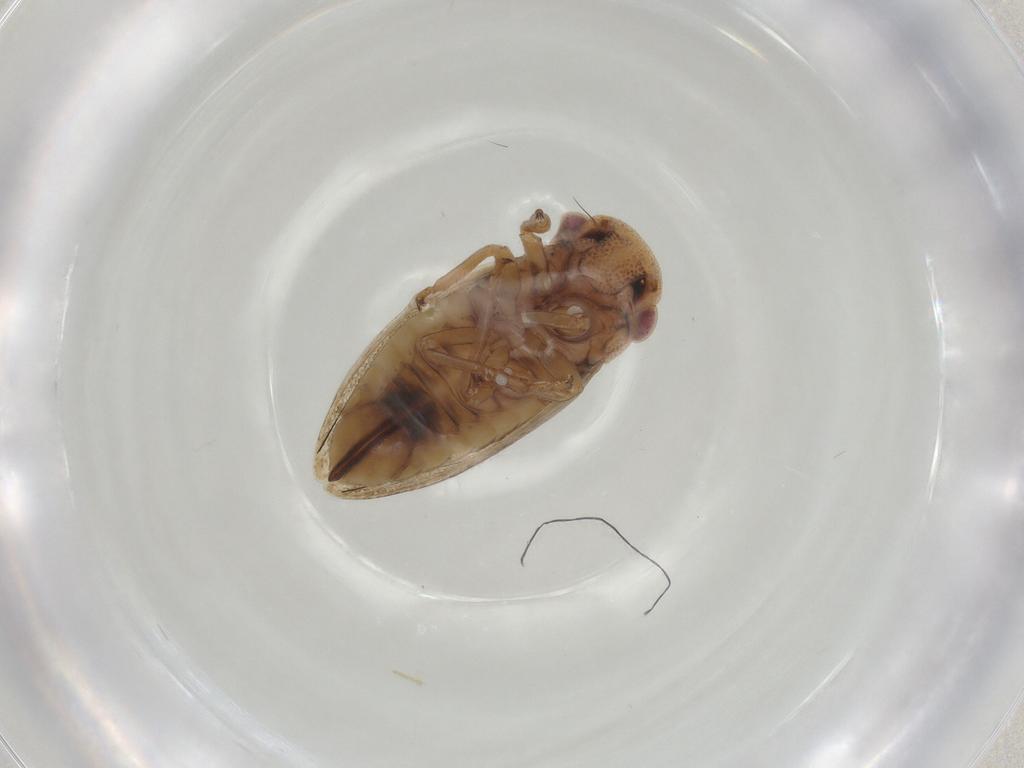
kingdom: Animalia
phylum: Arthropoda
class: Insecta
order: Hemiptera
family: Cicadellidae
